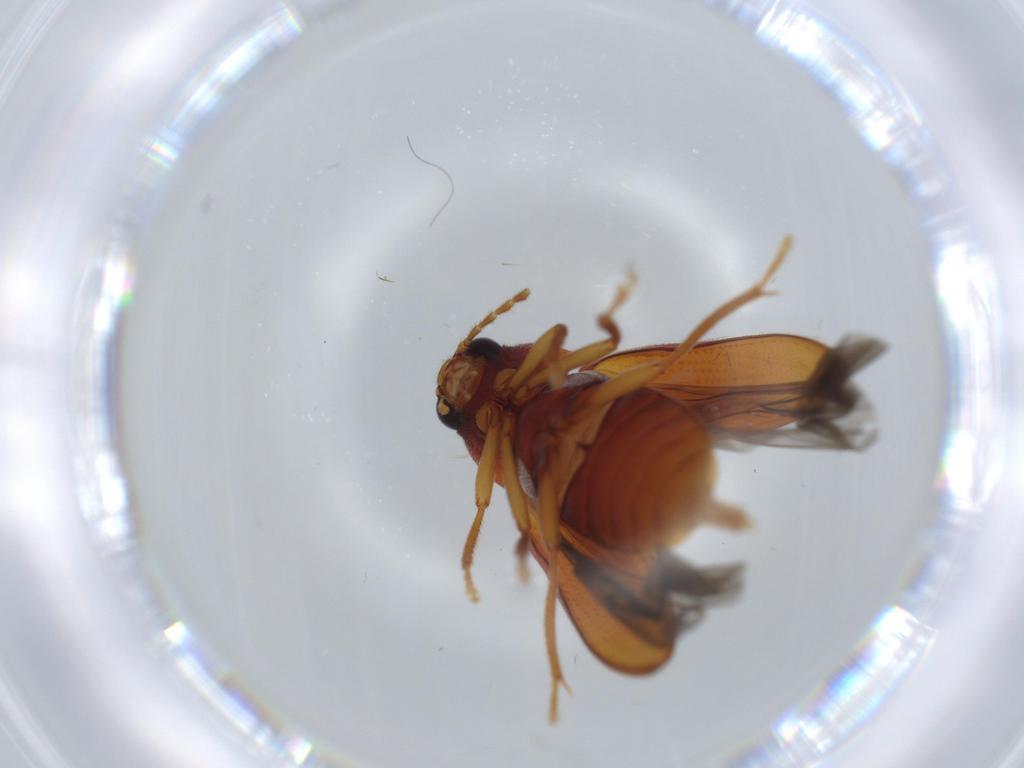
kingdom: Animalia
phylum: Arthropoda
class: Insecta
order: Coleoptera
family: Ptilodactylidae
